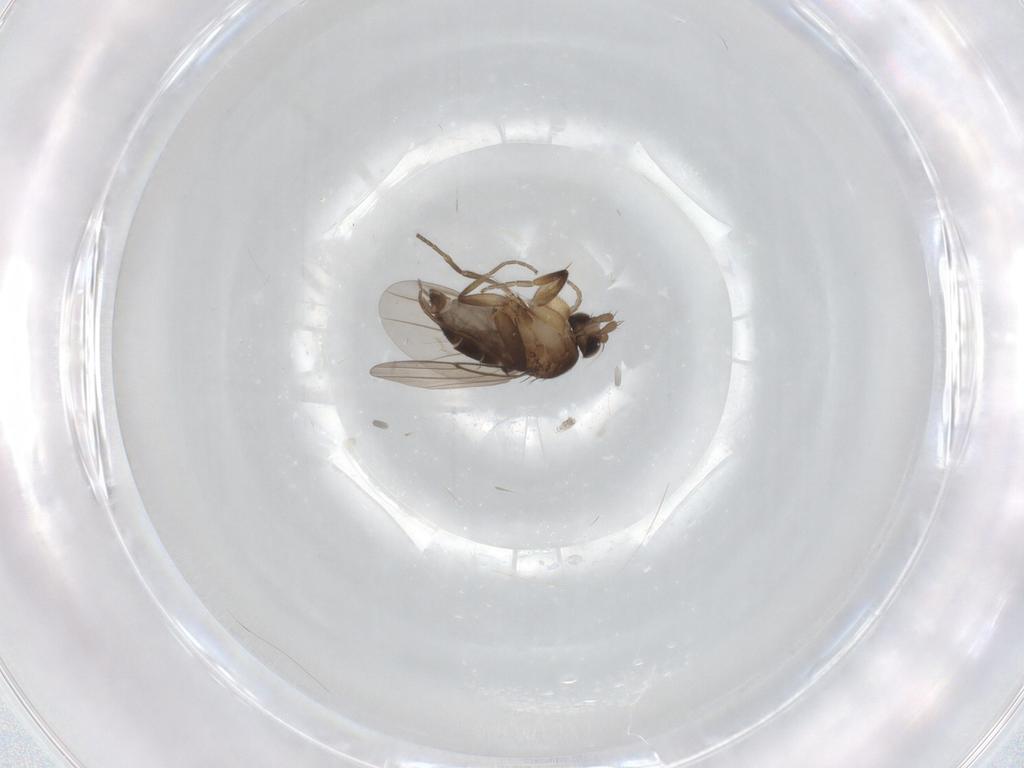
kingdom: Animalia
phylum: Arthropoda
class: Insecta
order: Diptera
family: Phoridae
